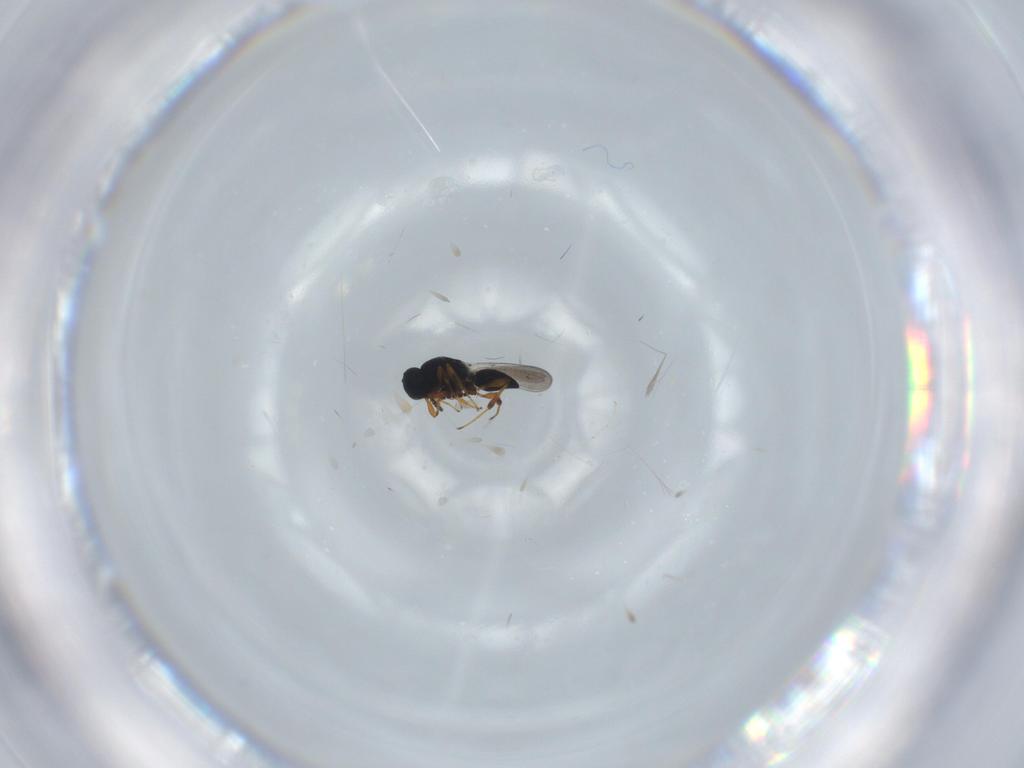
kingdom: Animalia
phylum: Arthropoda
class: Insecta
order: Hymenoptera
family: Platygastridae
